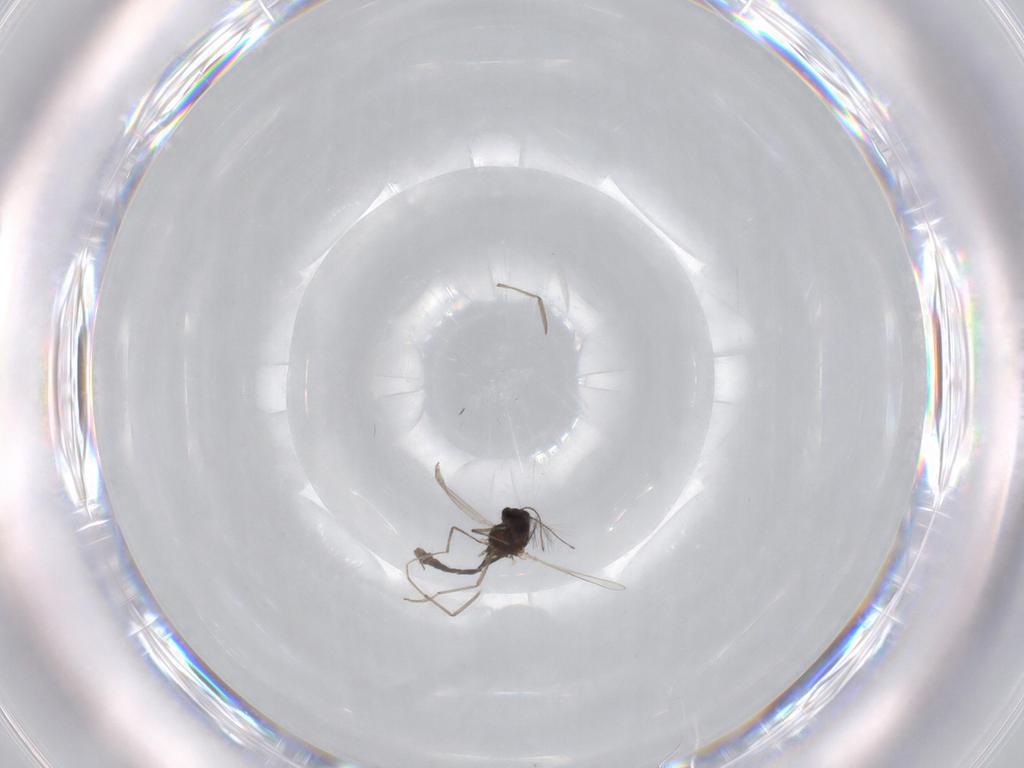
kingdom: Animalia
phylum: Arthropoda
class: Insecta
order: Diptera
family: Chironomidae
